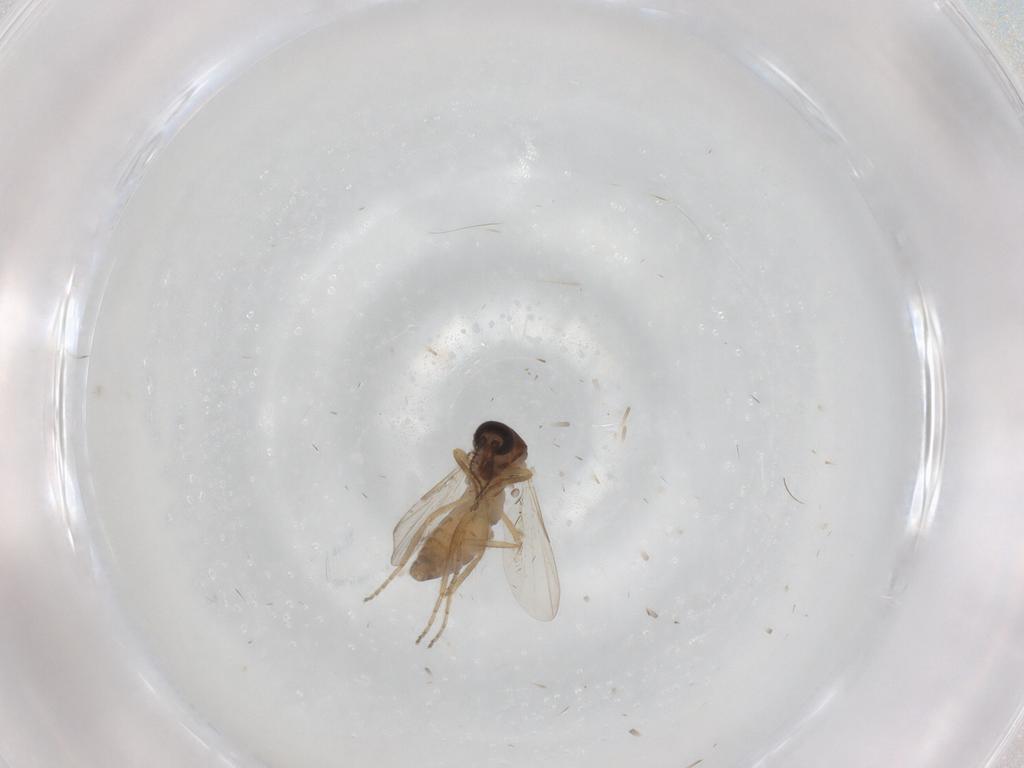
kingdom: Animalia
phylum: Arthropoda
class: Insecta
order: Diptera
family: Ceratopogonidae
